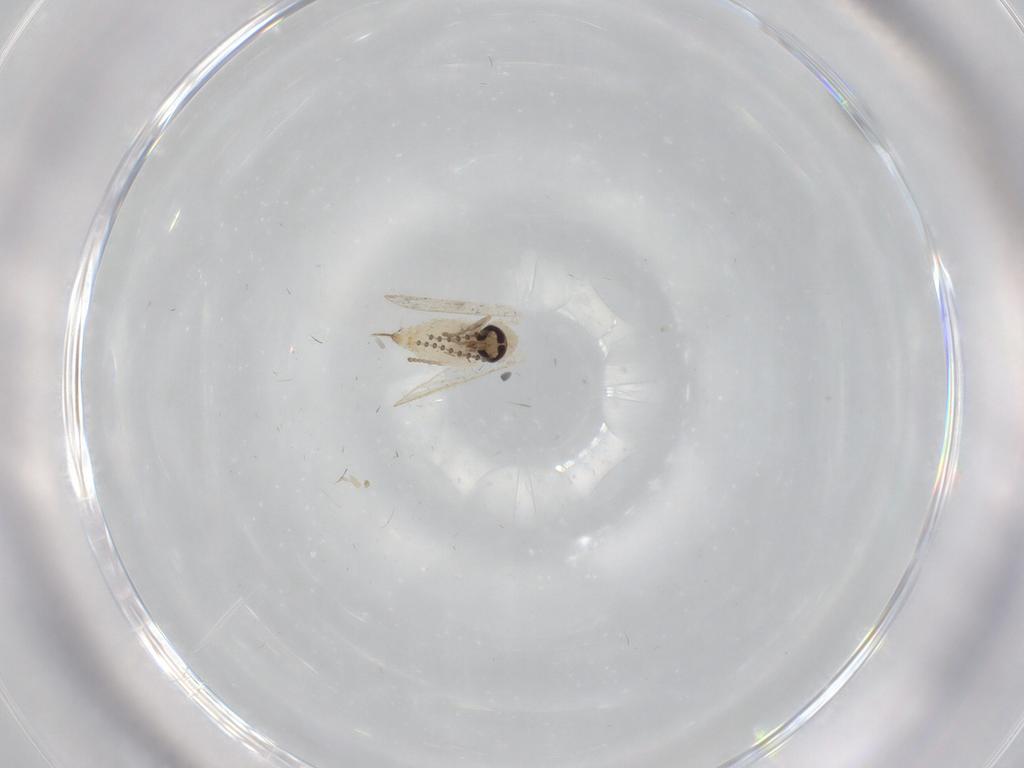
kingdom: Animalia
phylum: Arthropoda
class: Insecta
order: Diptera
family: Psychodidae
